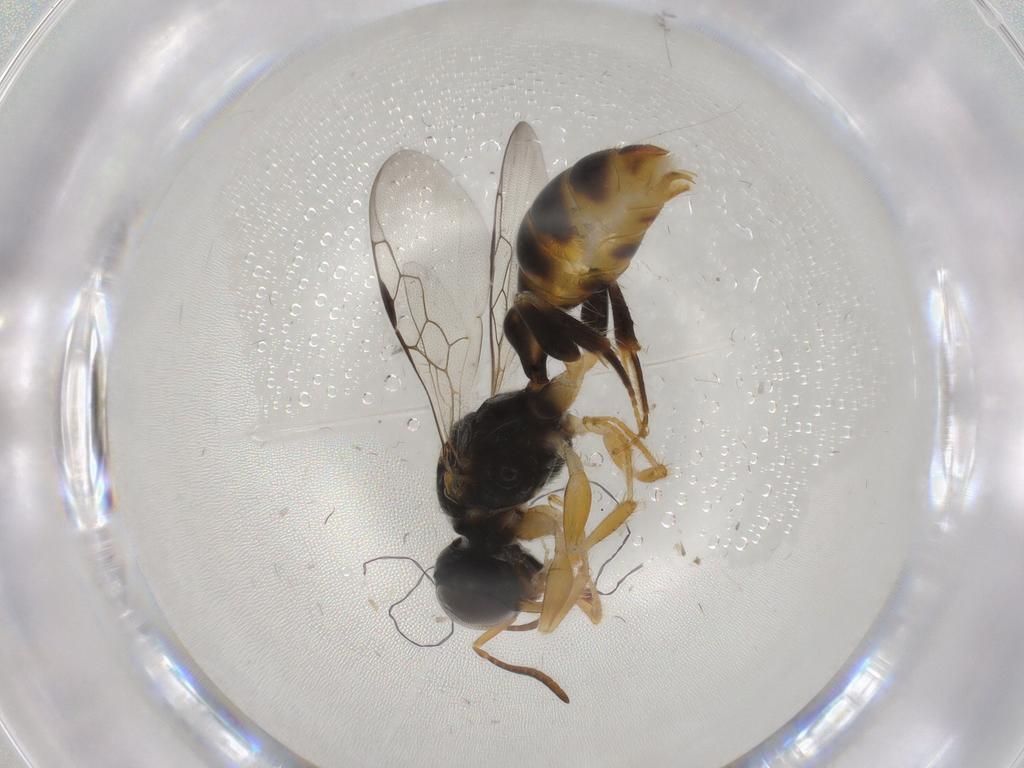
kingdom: Animalia
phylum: Arthropoda
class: Insecta
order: Hymenoptera
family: Crabronidae
